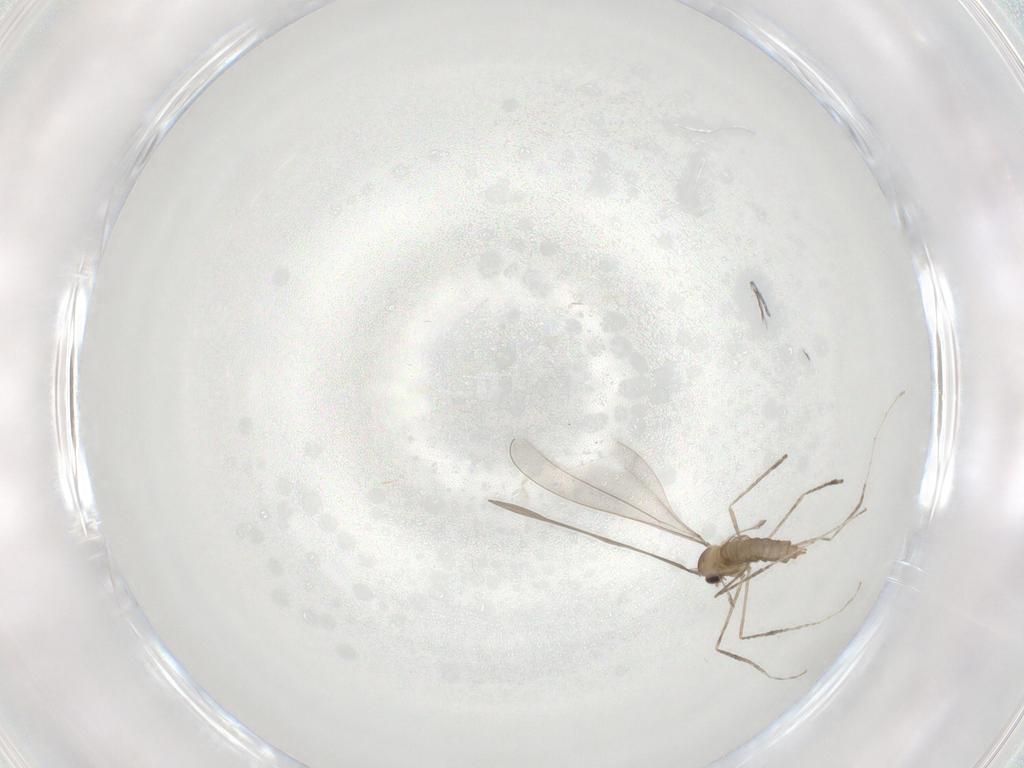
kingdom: Animalia
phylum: Arthropoda
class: Insecta
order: Diptera
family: Cecidomyiidae
